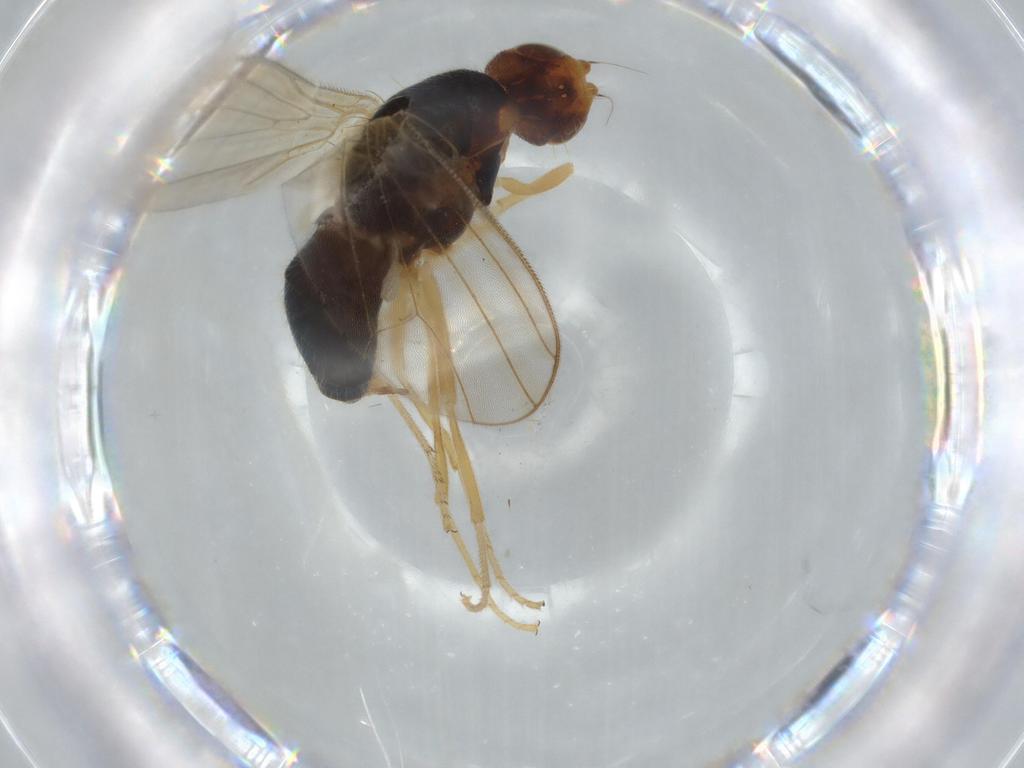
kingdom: Animalia
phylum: Arthropoda
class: Insecta
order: Diptera
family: Psilidae
